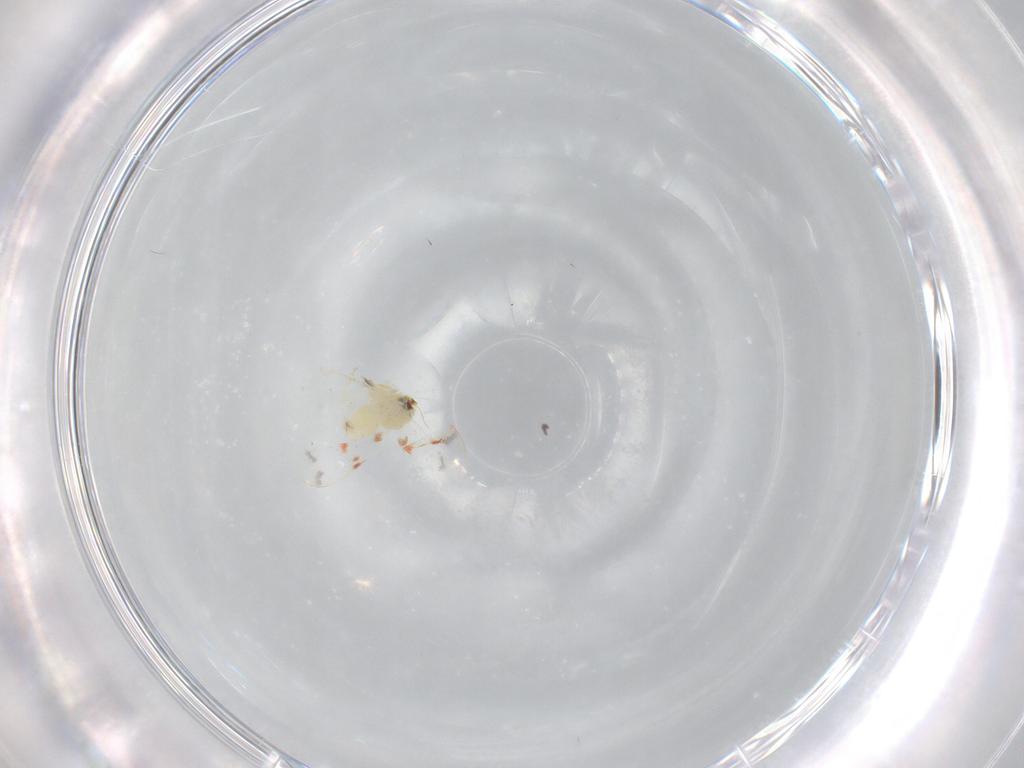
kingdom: Animalia
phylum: Arthropoda
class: Insecta
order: Hemiptera
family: Aleyrodidae
